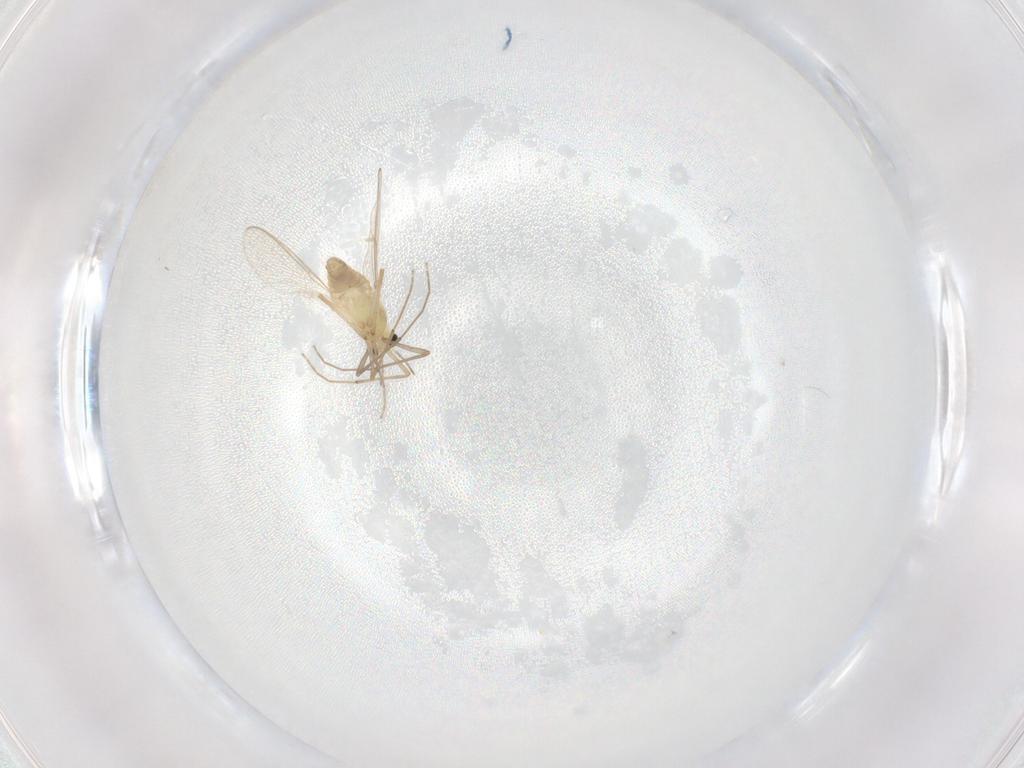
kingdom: Animalia
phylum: Arthropoda
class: Insecta
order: Diptera
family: Chironomidae
